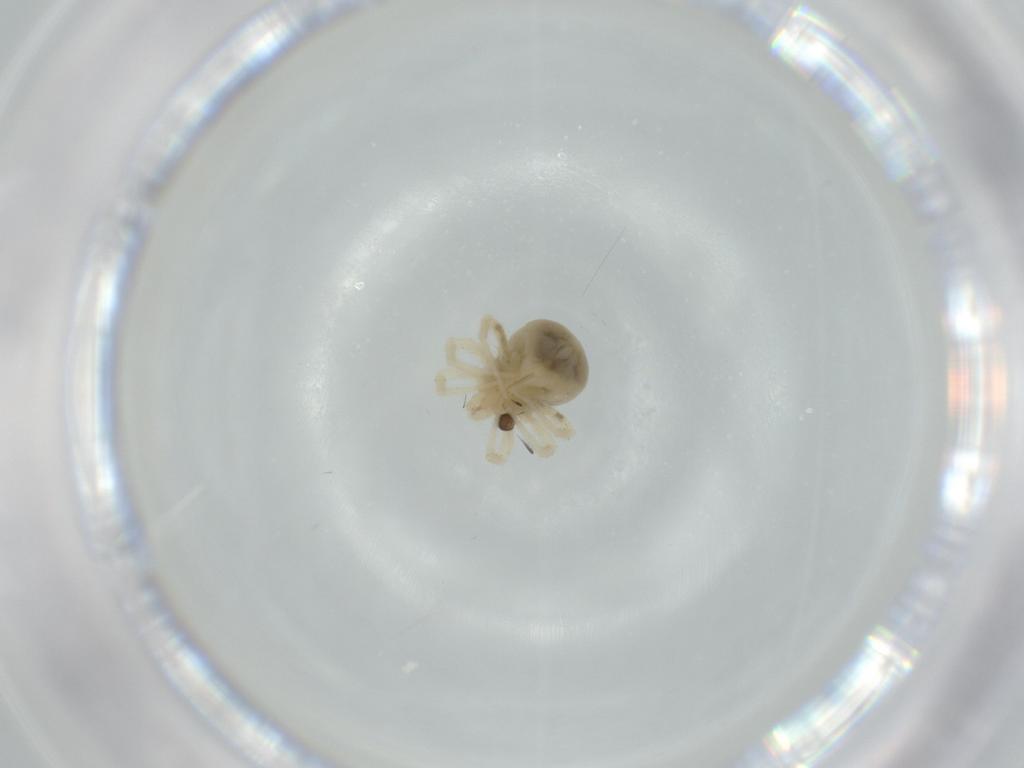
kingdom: Animalia
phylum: Arthropoda
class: Arachnida
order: Trombidiformes
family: Anystidae
